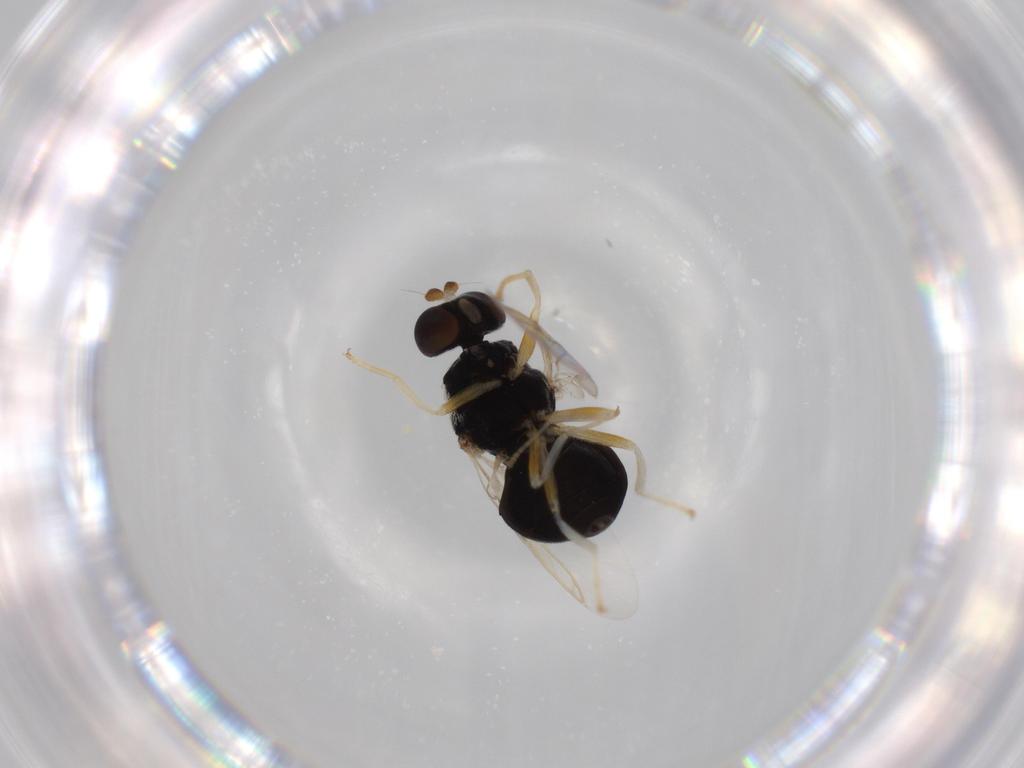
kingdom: Animalia
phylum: Arthropoda
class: Insecta
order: Diptera
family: Stratiomyidae
